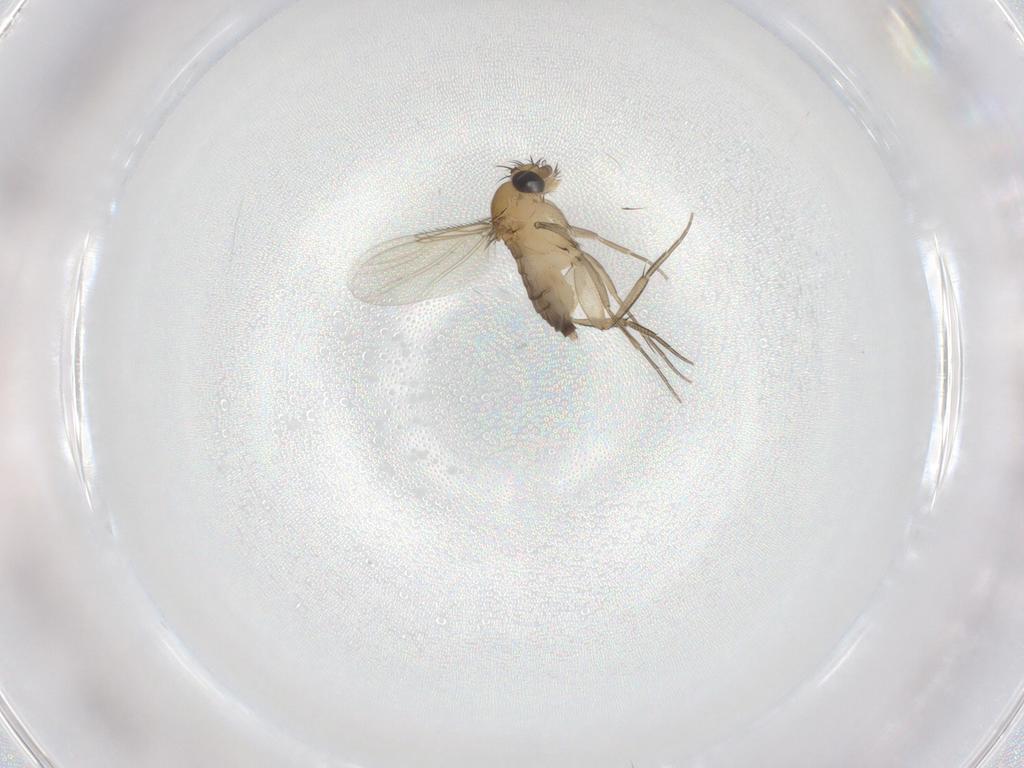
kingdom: Animalia
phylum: Arthropoda
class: Insecta
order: Diptera
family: Phoridae
